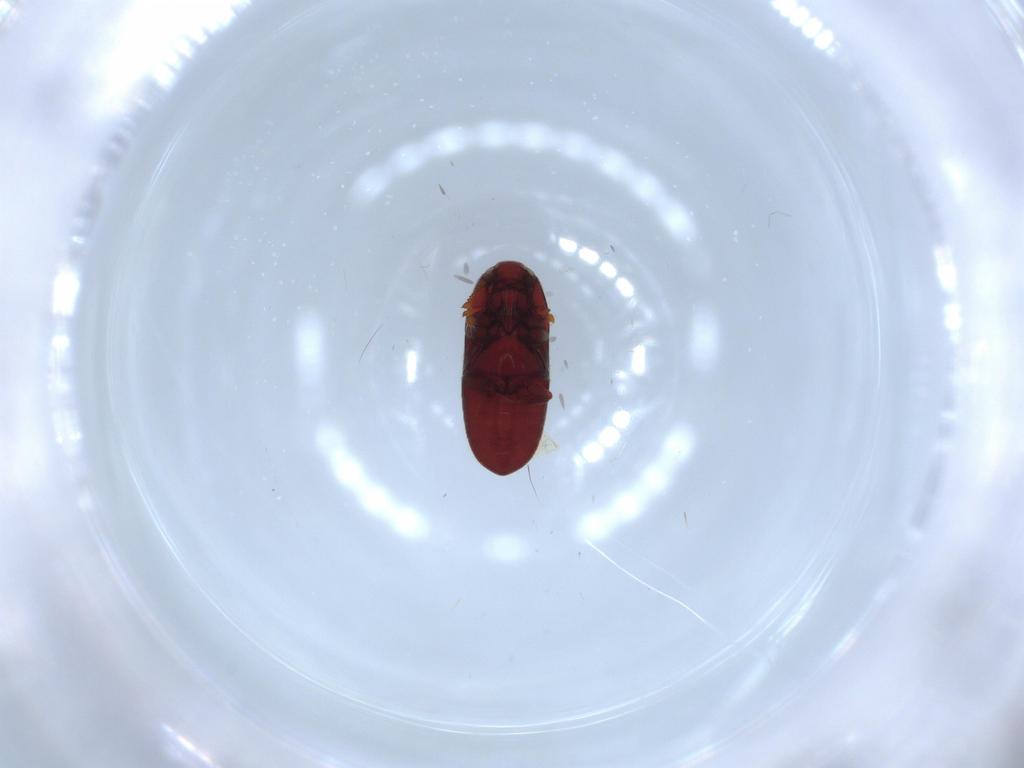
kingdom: Animalia
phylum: Arthropoda
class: Insecta
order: Coleoptera
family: Throscidae
